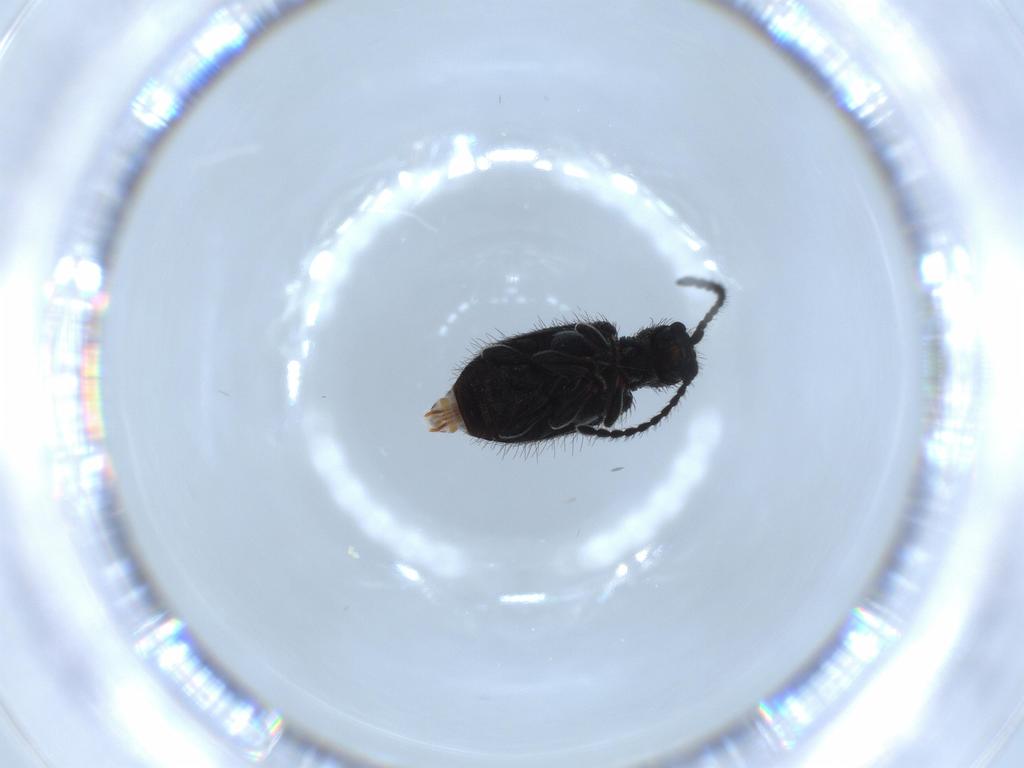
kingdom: Animalia
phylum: Arthropoda
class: Insecta
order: Coleoptera
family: Ptinidae
